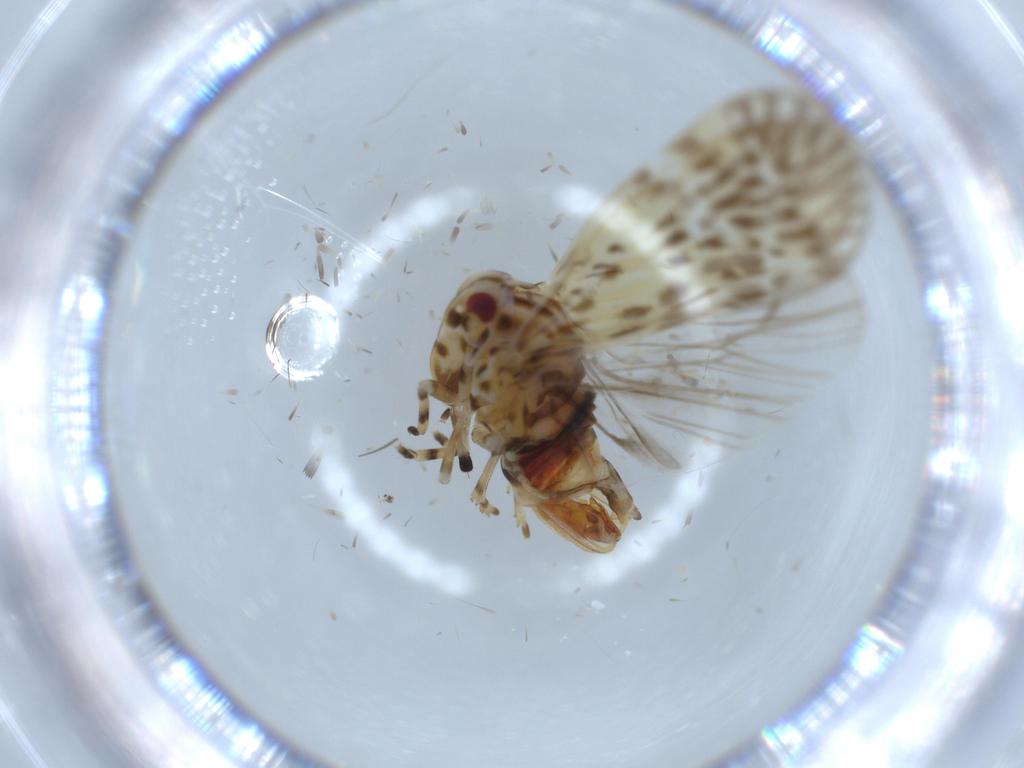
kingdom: Animalia
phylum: Arthropoda
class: Insecta
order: Hemiptera
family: Derbidae
